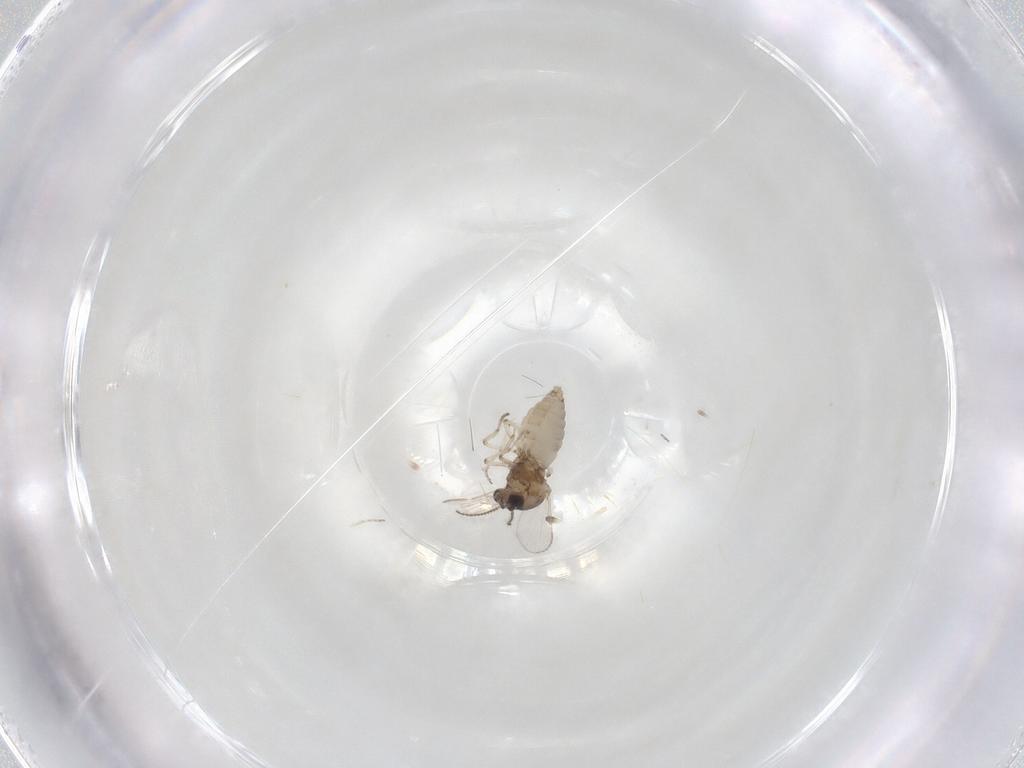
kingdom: Animalia
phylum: Arthropoda
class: Insecta
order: Diptera
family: Ceratopogonidae
